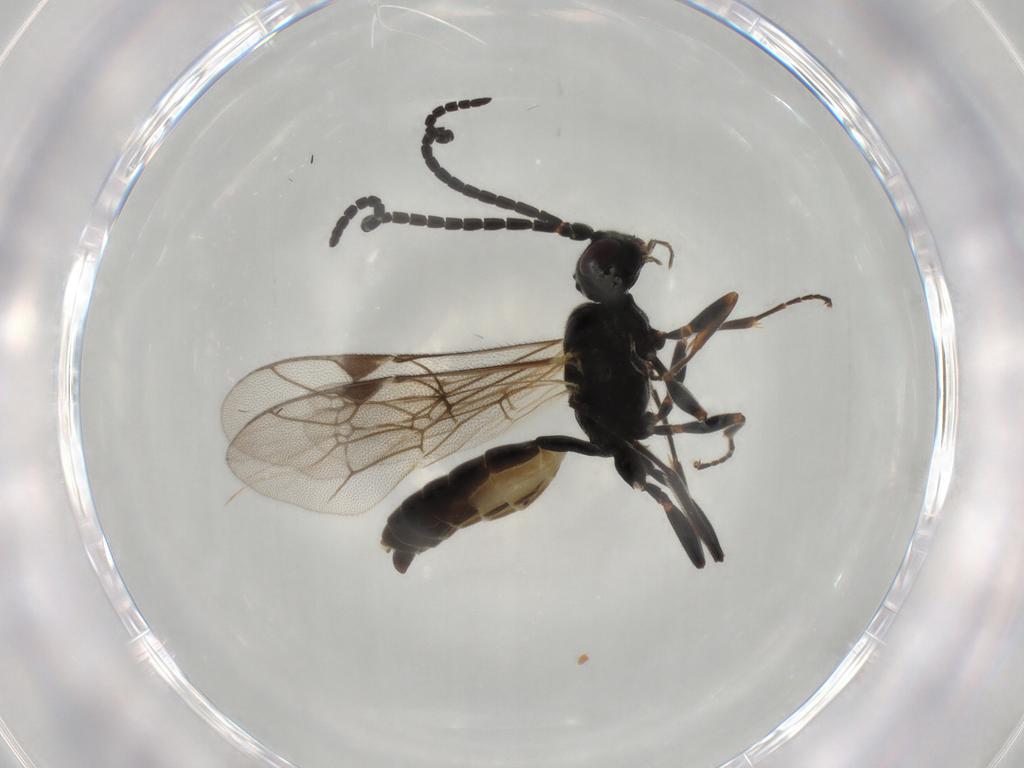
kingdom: Animalia
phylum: Arthropoda
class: Insecta
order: Hymenoptera
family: Ichneumonidae
